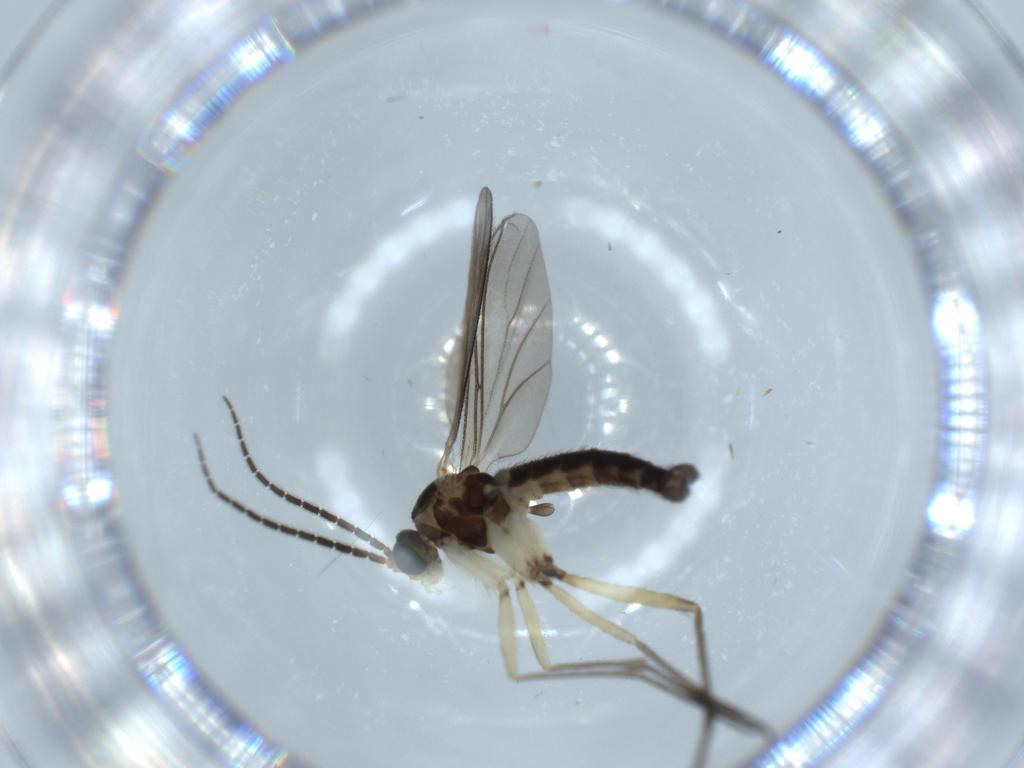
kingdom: Animalia
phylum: Arthropoda
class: Insecta
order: Diptera
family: Sciaridae
